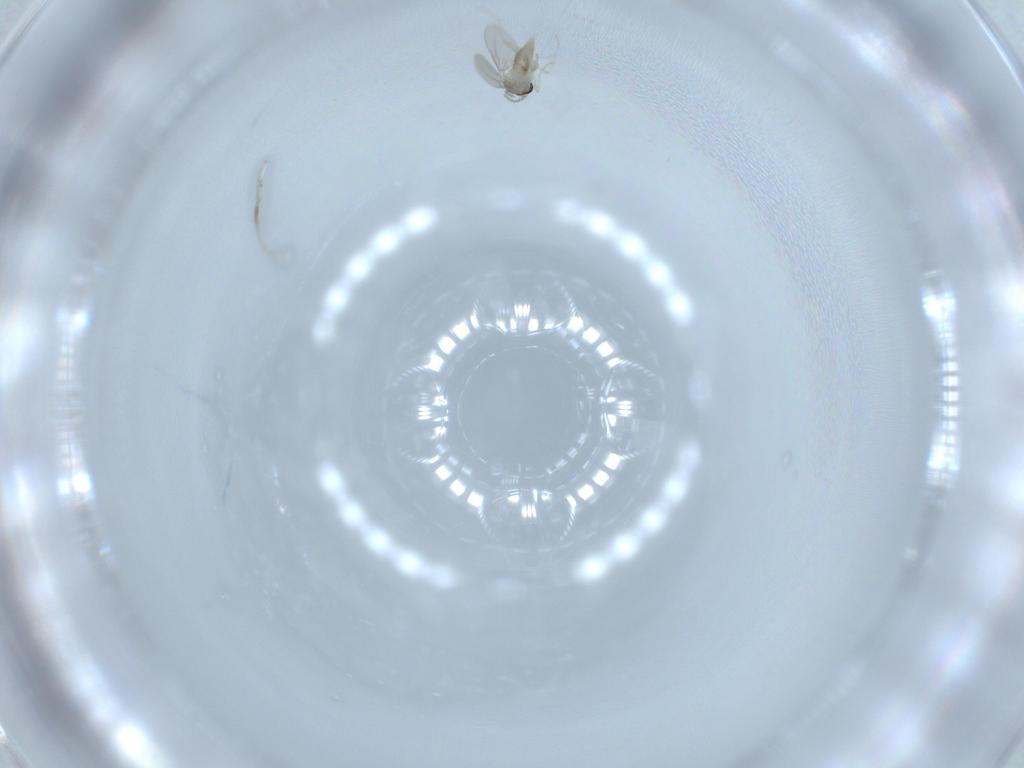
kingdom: Animalia
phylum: Arthropoda
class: Insecta
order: Diptera
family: Cecidomyiidae
